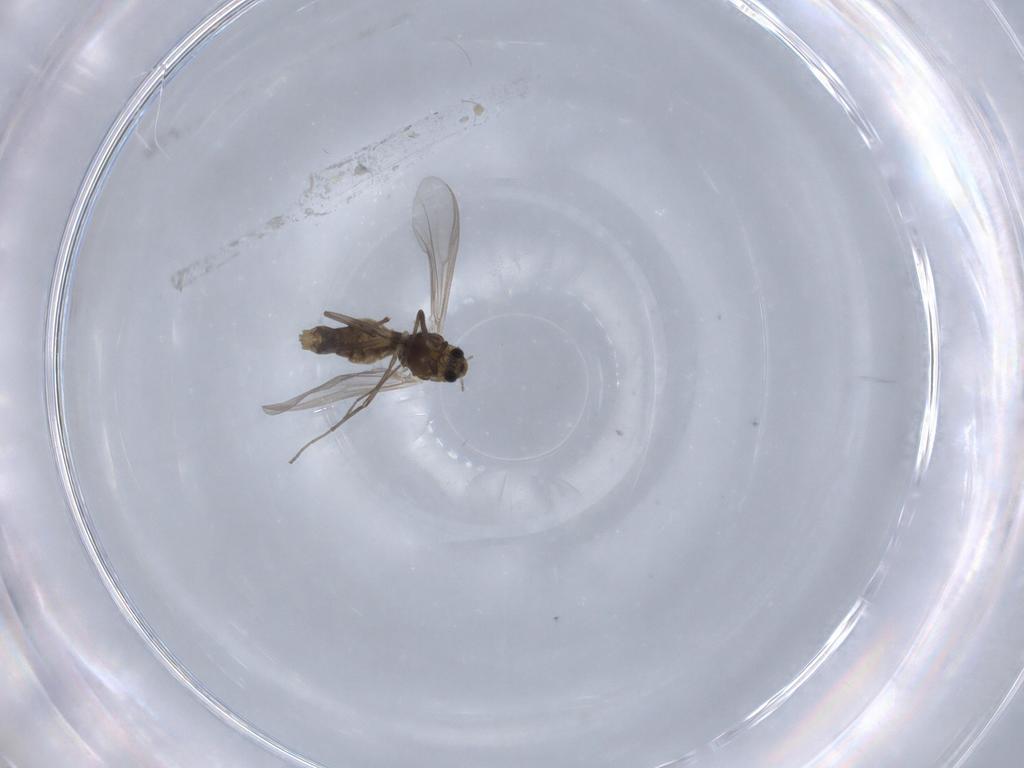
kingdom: Animalia
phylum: Arthropoda
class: Insecta
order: Diptera
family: Chironomidae
